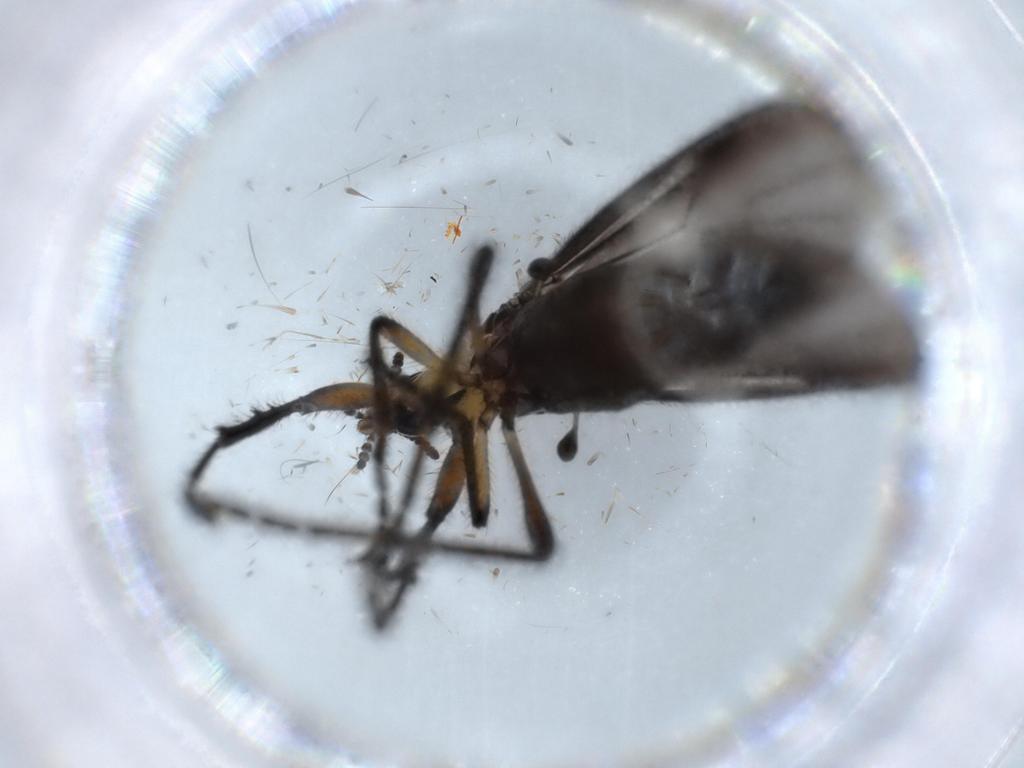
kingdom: Animalia
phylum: Arthropoda
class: Insecta
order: Diptera
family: Bibionidae
